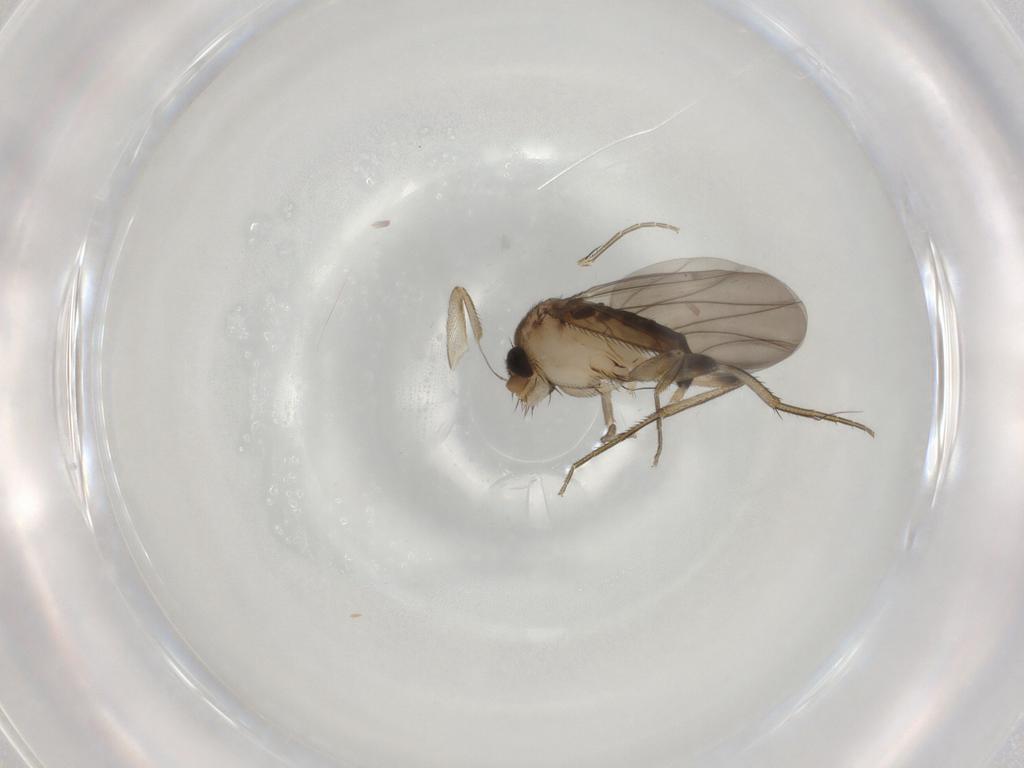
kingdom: Animalia
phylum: Arthropoda
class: Insecta
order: Diptera
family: Phoridae
